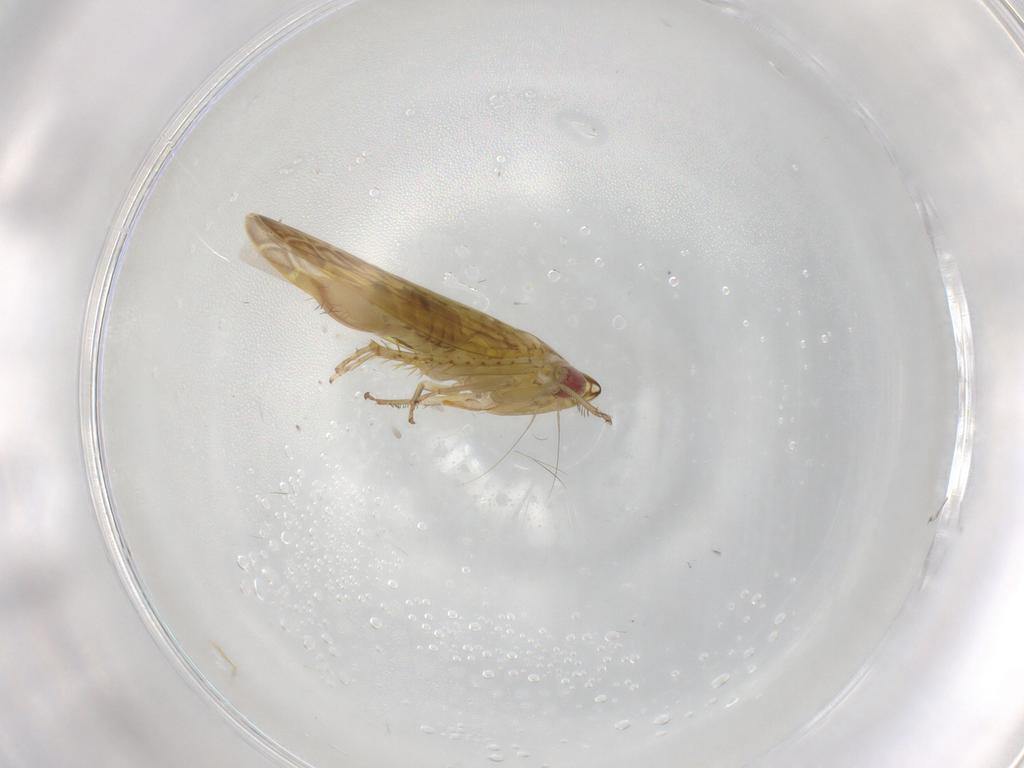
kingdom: Animalia
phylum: Arthropoda
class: Insecta
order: Hemiptera
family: Cicadellidae
